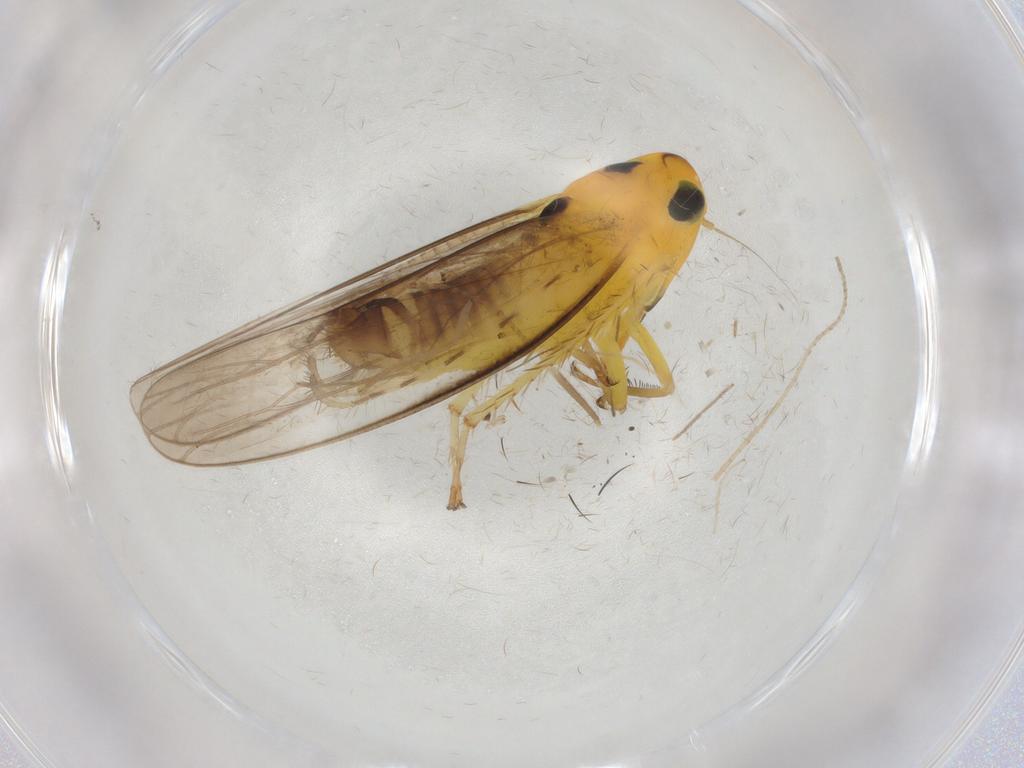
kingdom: Animalia
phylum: Arthropoda
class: Insecta
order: Hemiptera
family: Cicadellidae
